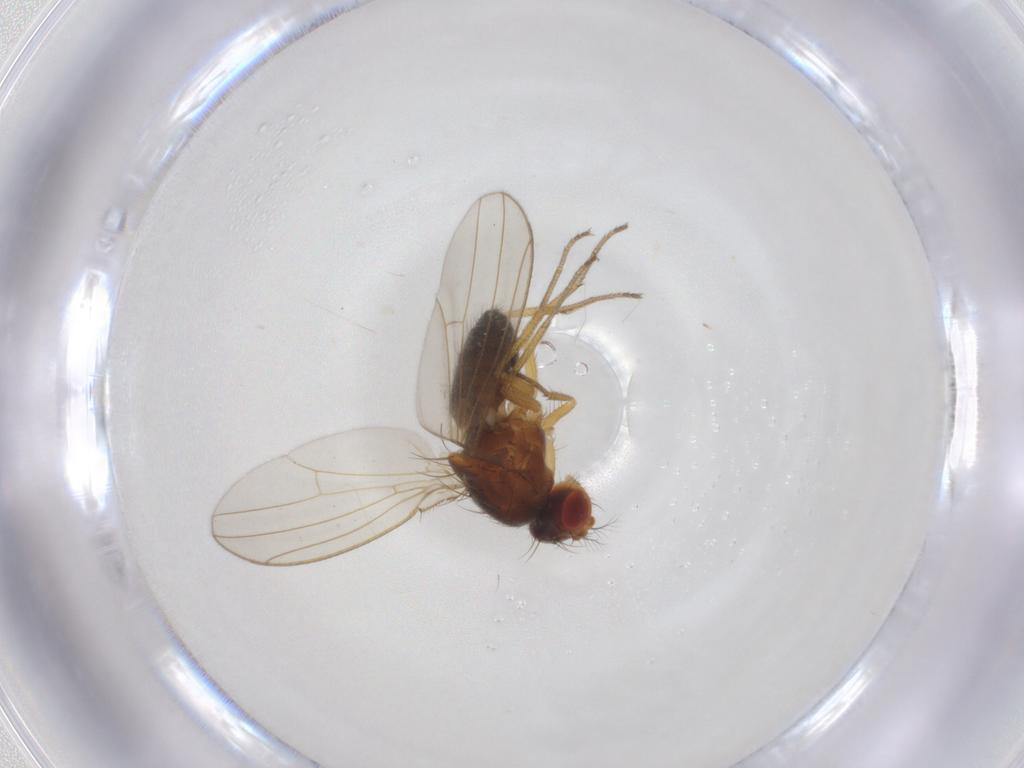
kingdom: Animalia
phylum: Arthropoda
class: Insecta
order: Diptera
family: Ceratopogonidae
